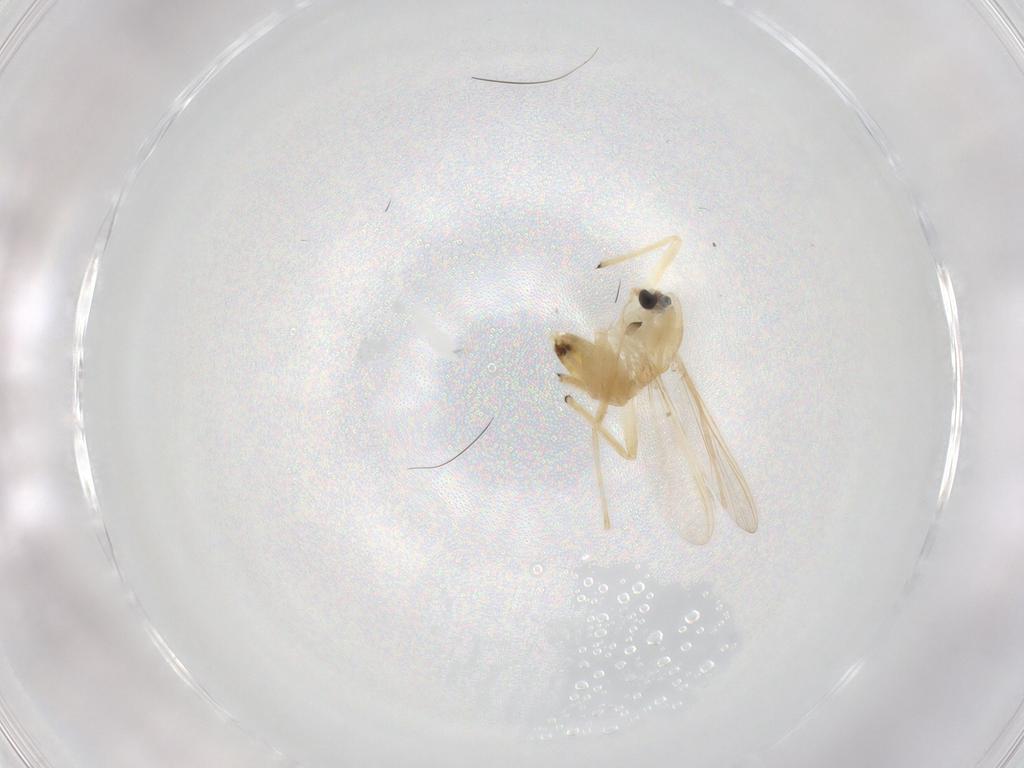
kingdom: Animalia
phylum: Arthropoda
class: Insecta
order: Diptera
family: Chironomidae
